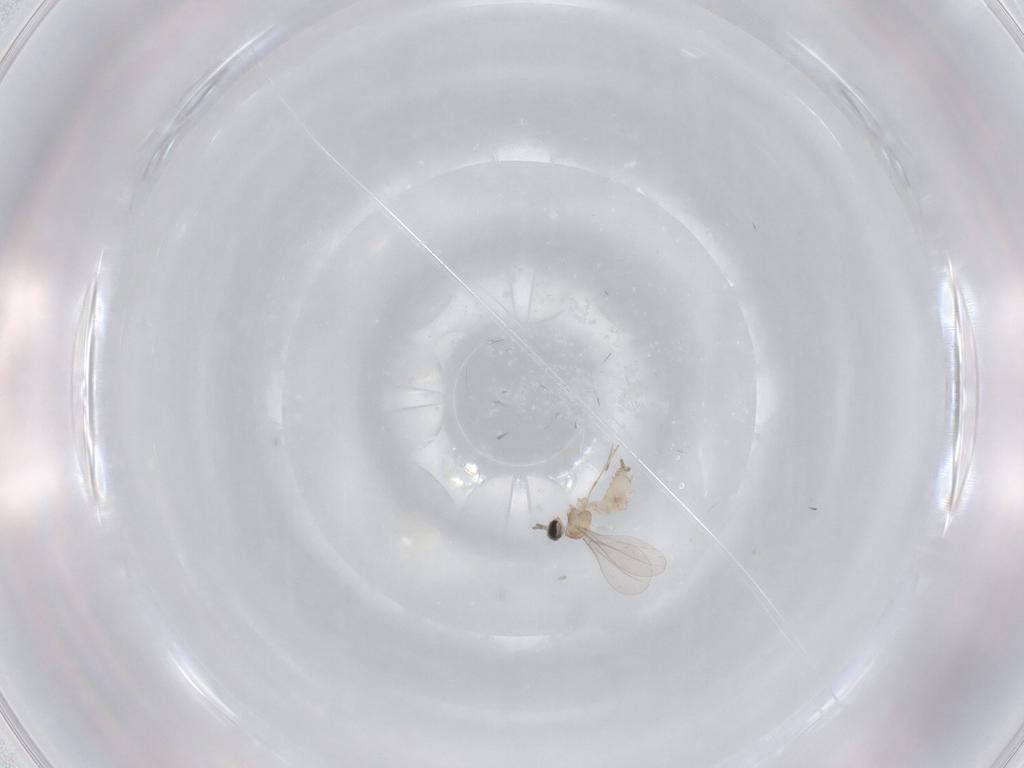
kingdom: Animalia
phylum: Arthropoda
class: Insecta
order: Diptera
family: Cecidomyiidae
